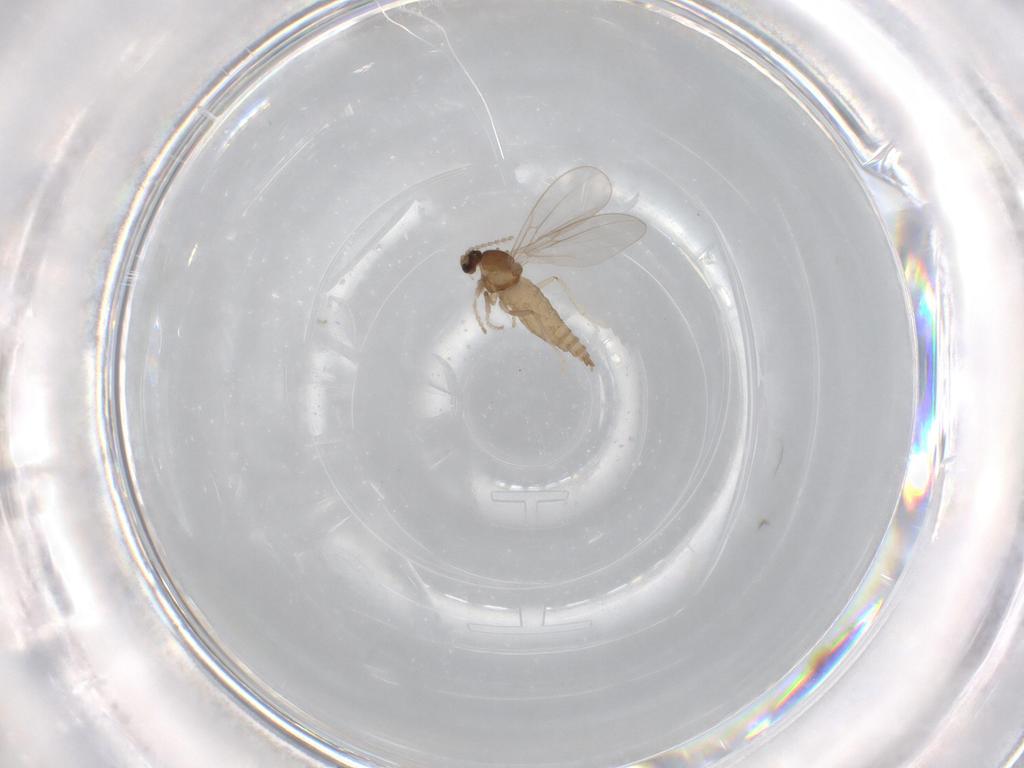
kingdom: Animalia
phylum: Arthropoda
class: Insecta
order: Diptera
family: Cecidomyiidae
